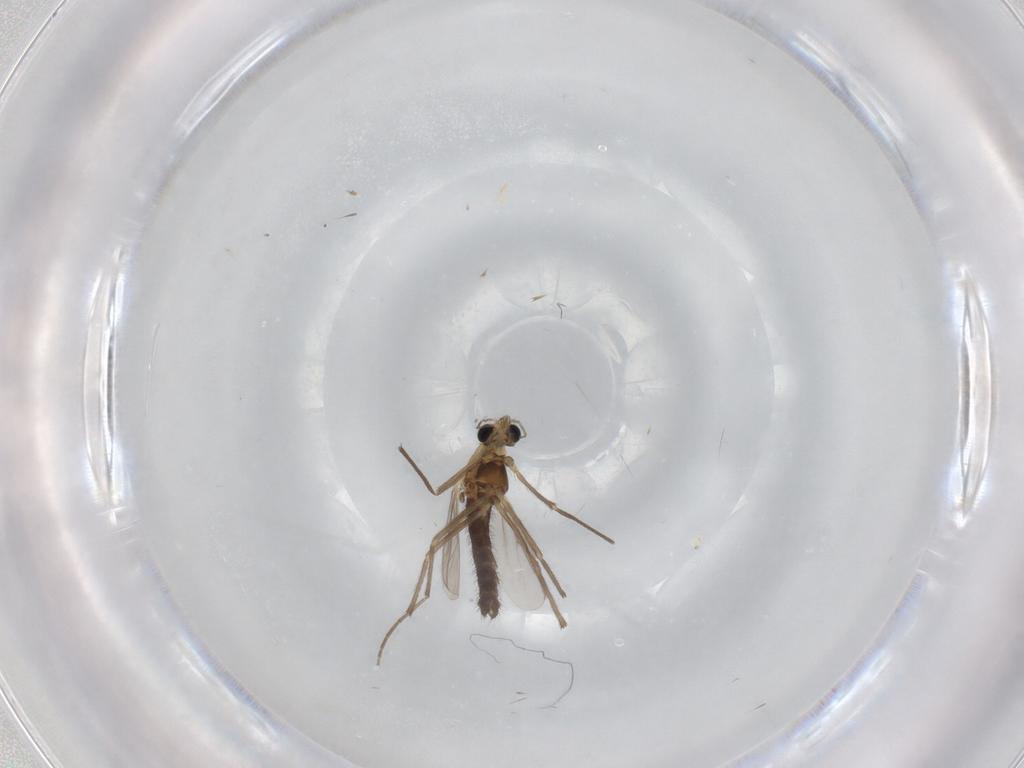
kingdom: Animalia
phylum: Arthropoda
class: Insecta
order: Diptera
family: Chironomidae
